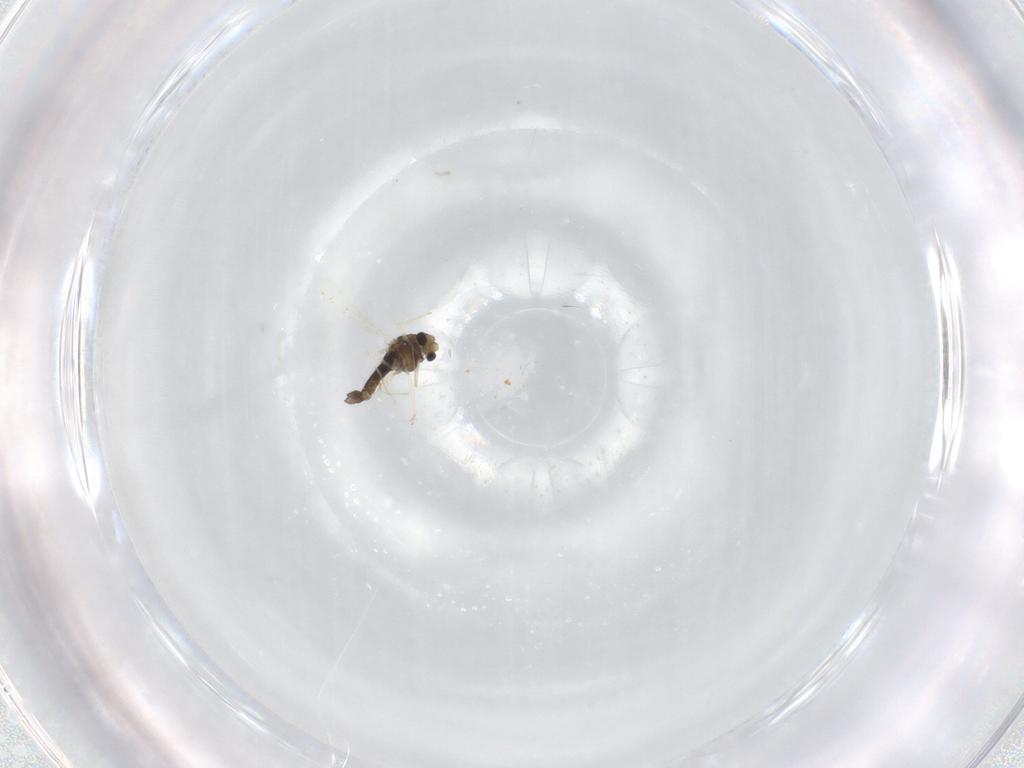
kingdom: Animalia
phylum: Arthropoda
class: Insecta
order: Diptera
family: Chironomidae
